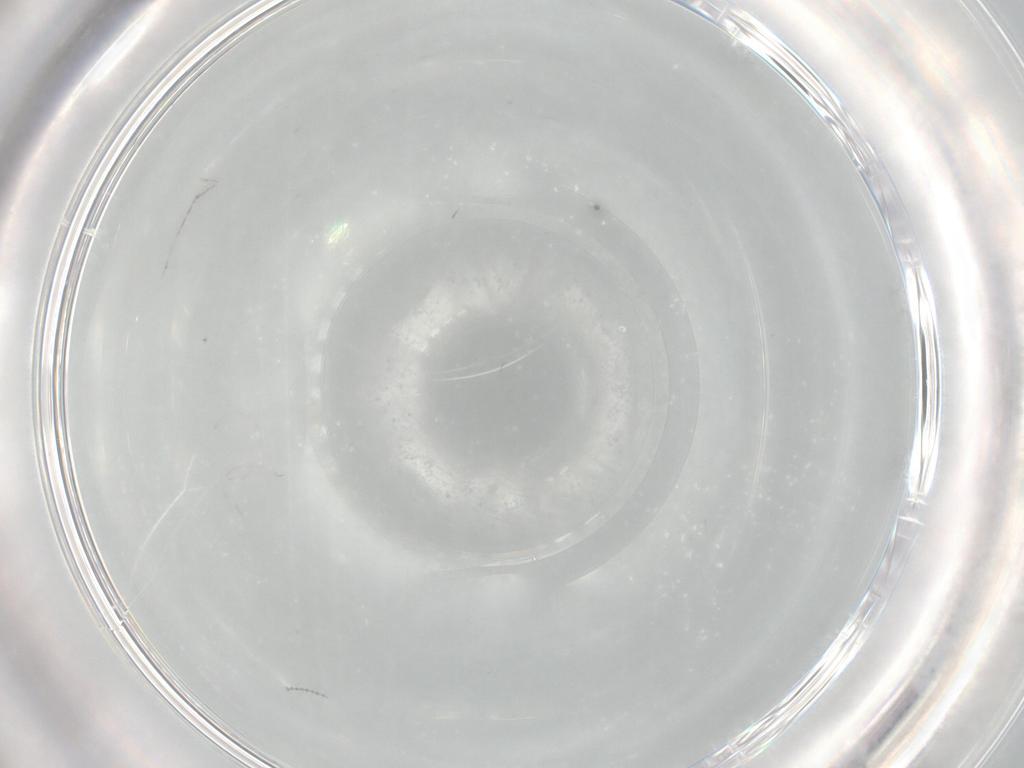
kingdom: Animalia
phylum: Arthropoda
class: Insecta
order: Diptera
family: Cecidomyiidae
